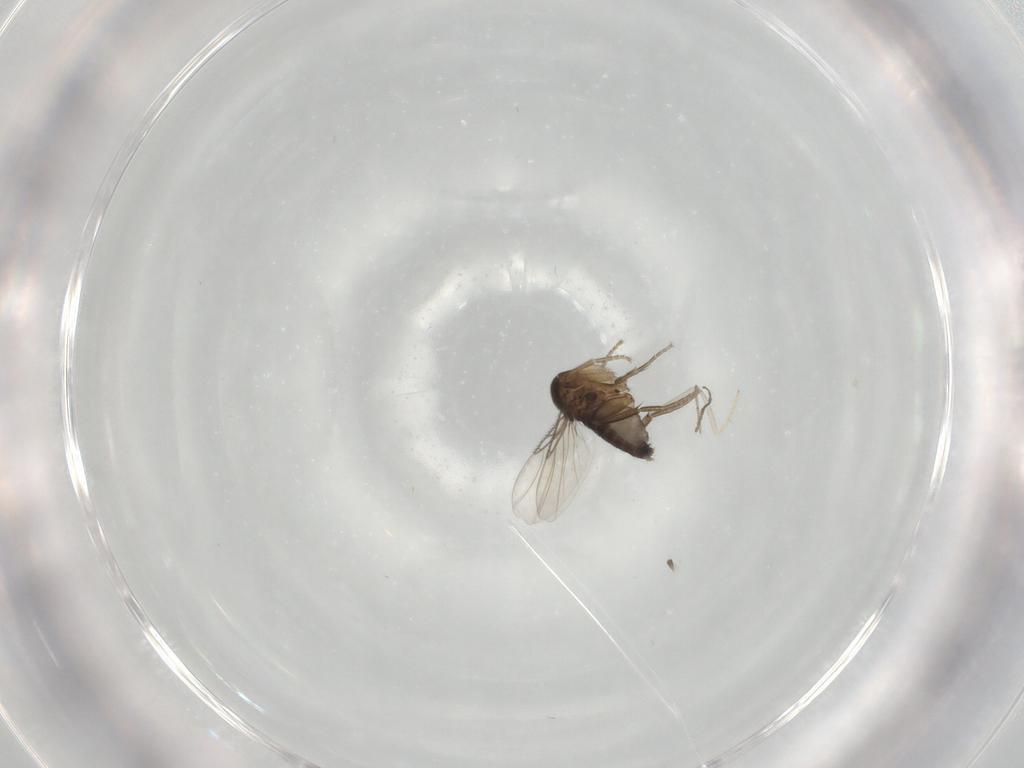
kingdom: Animalia
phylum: Arthropoda
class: Insecta
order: Diptera
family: Phoridae
